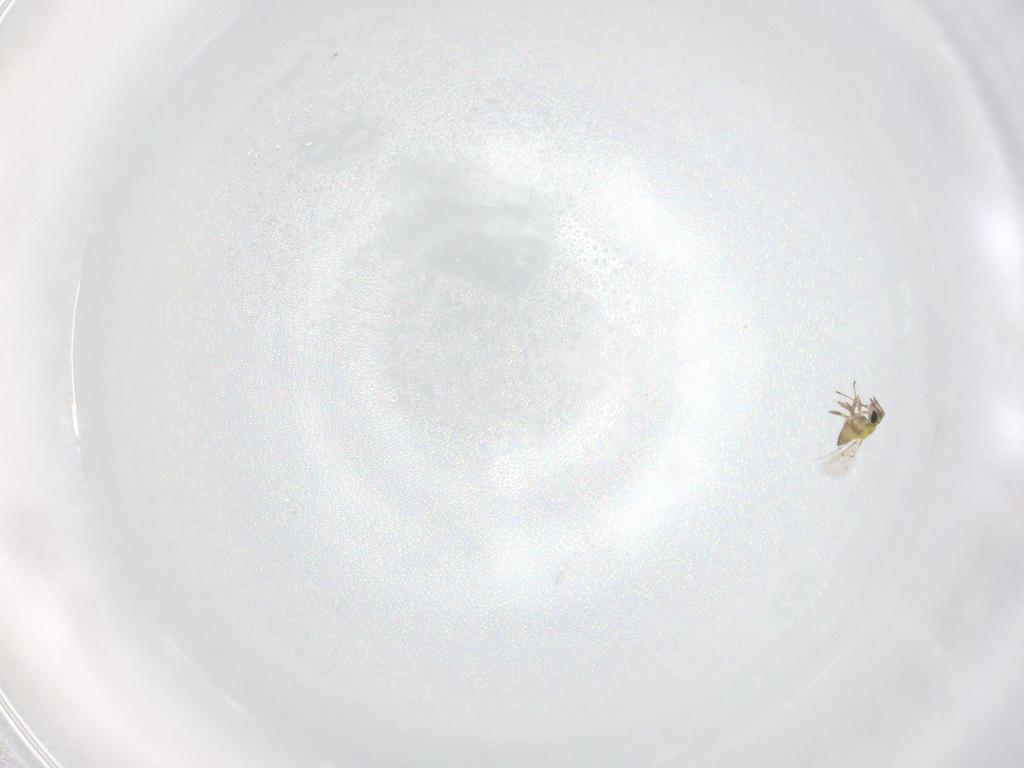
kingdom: Animalia
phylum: Arthropoda
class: Insecta
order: Hymenoptera
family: Trichogrammatidae
